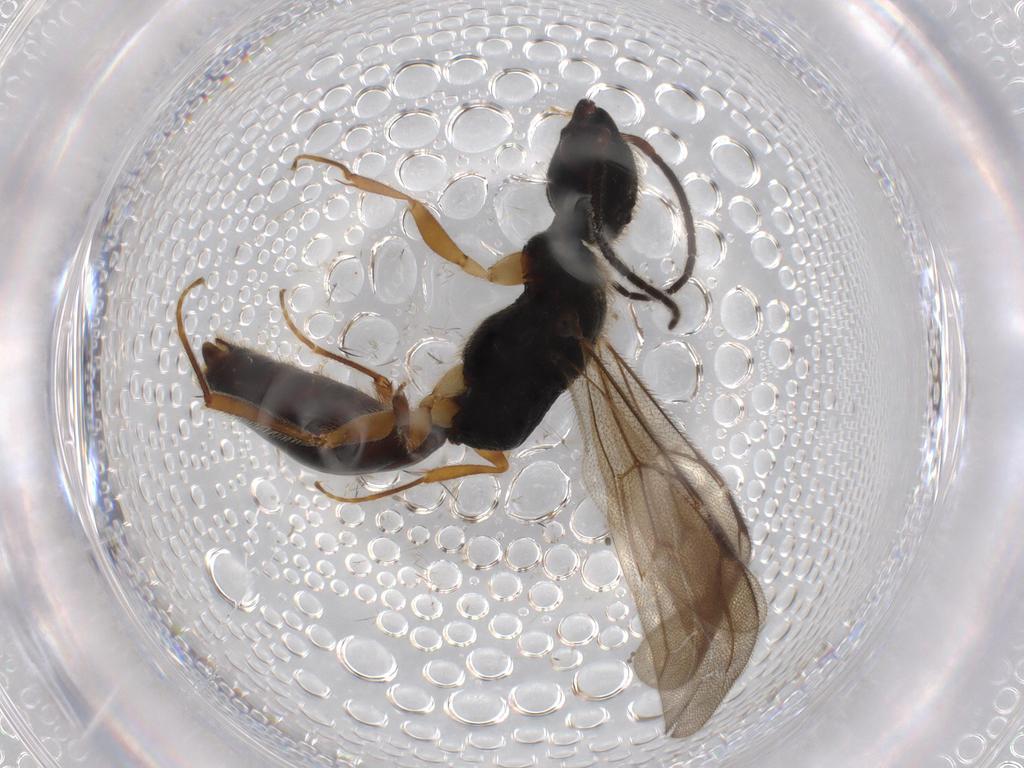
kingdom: Animalia
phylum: Arthropoda
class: Insecta
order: Hymenoptera
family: Bethylidae
